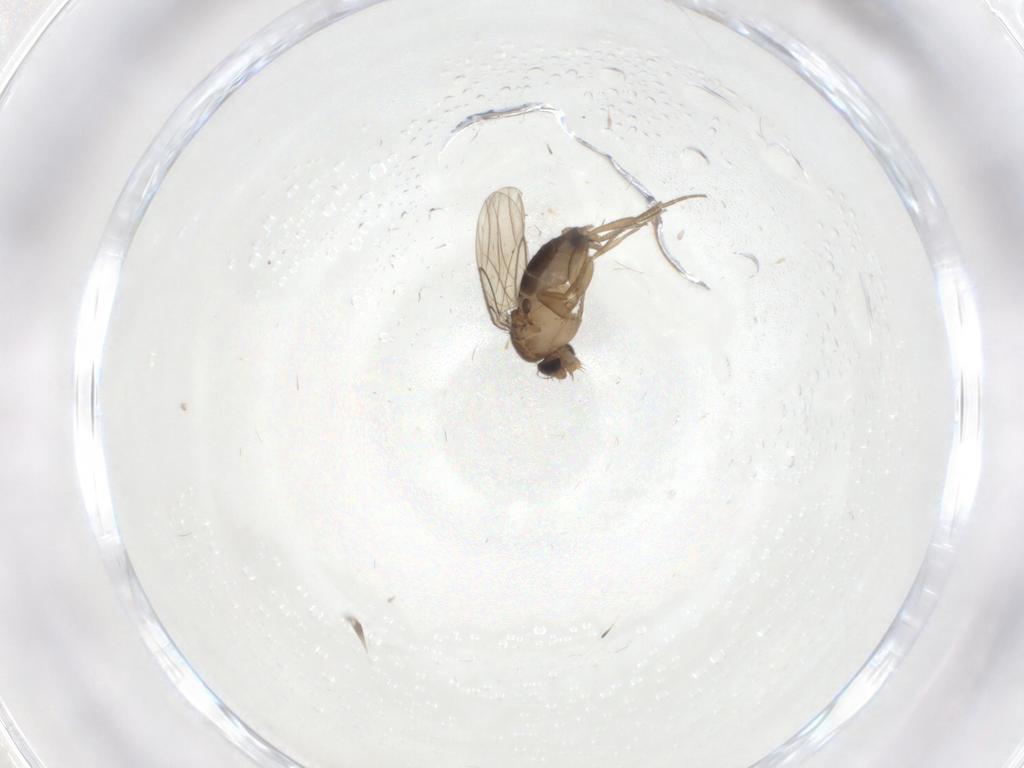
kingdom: Animalia
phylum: Arthropoda
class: Insecta
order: Diptera
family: Phoridae
